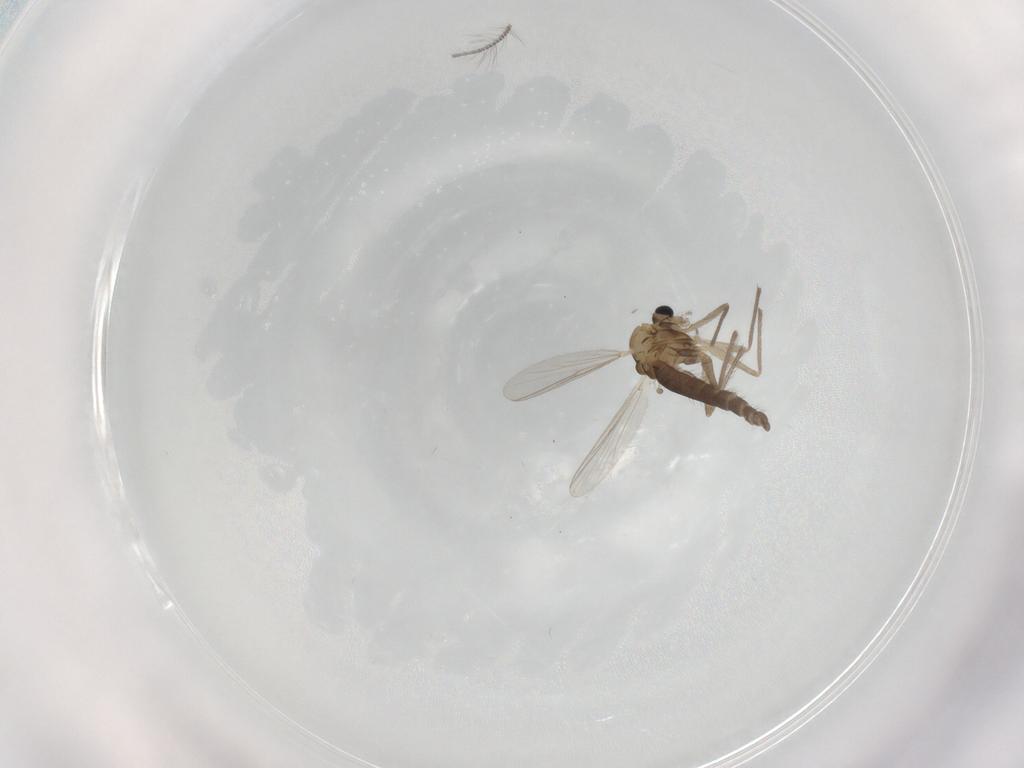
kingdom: Animalia
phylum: Arthropoda
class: Insecta
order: Diptera
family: Chironomidae
